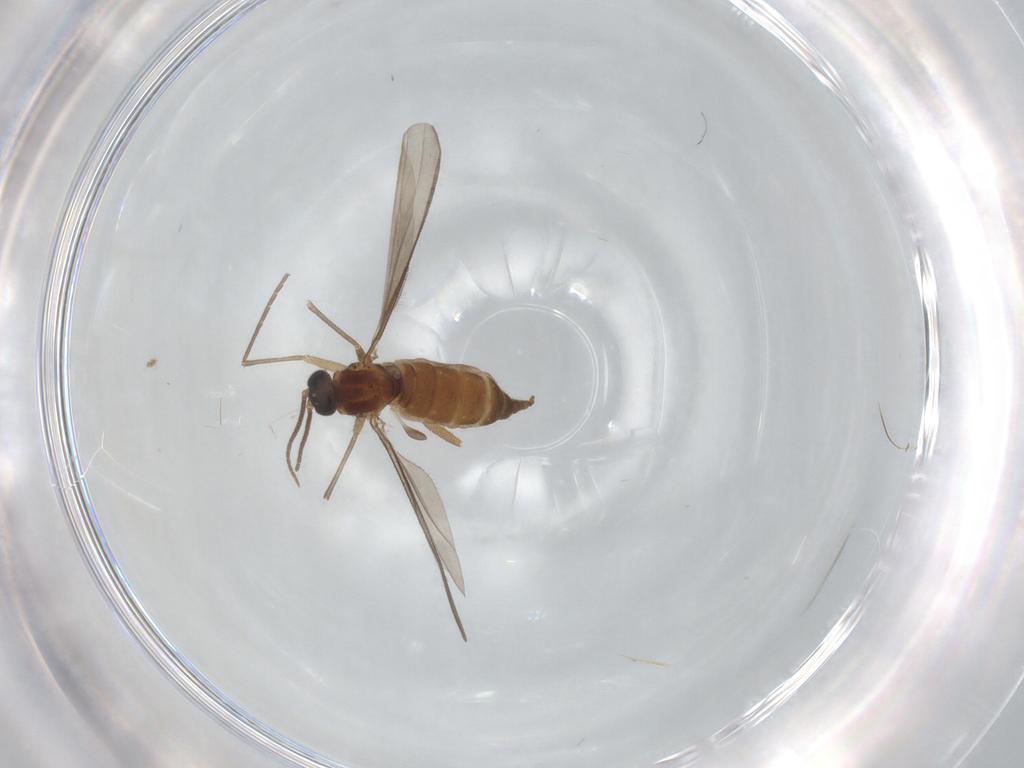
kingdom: Animalia
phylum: Arthropoda
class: Insecta
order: Diptera
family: Sciaridae
